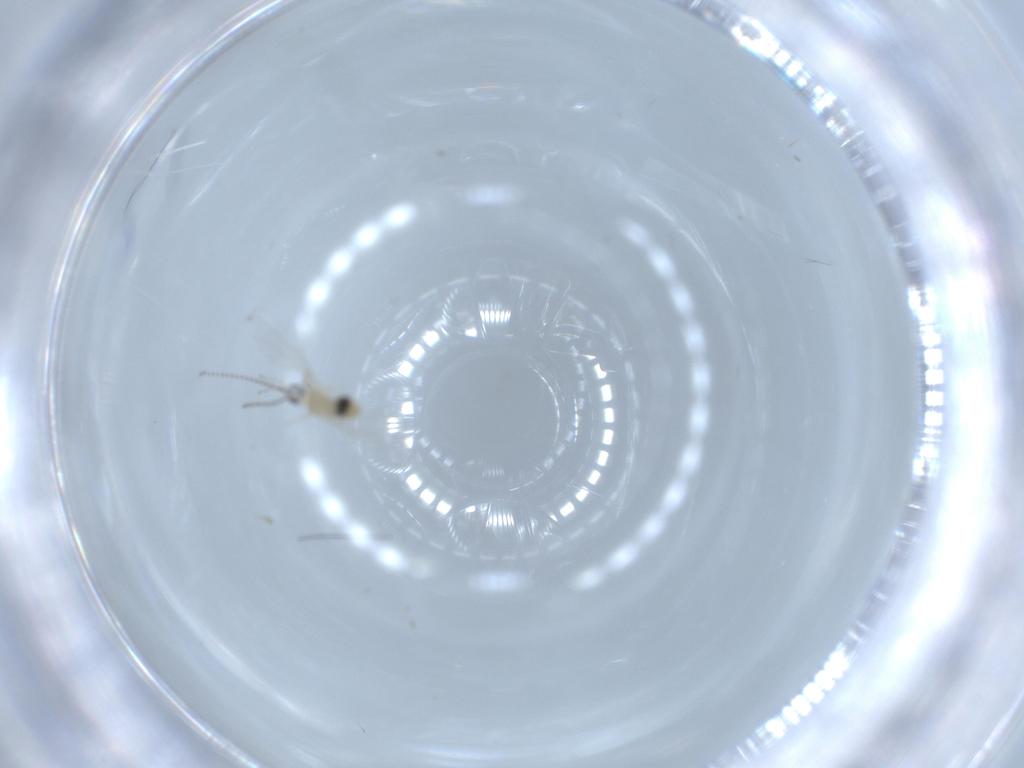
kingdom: Animalia
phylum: Arthropoda
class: Insecta
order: Diptera
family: Cecidomyiidae
